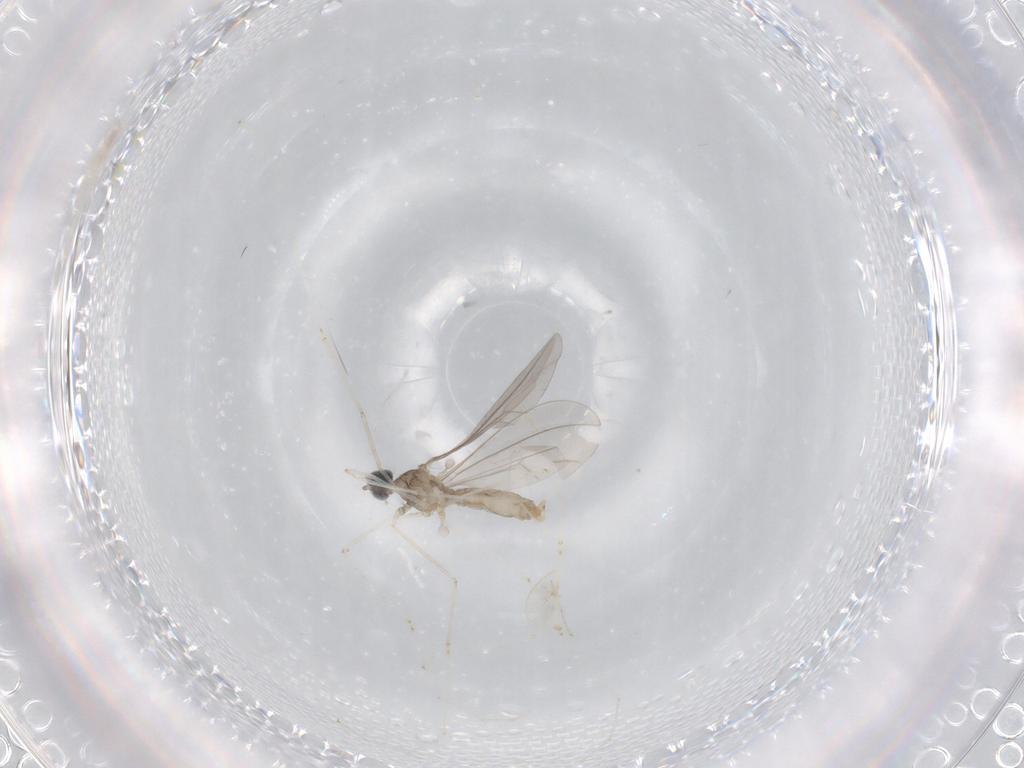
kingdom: Animalia
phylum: Arthropoda
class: Insecta
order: Diptera
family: Cecidomyiidae
